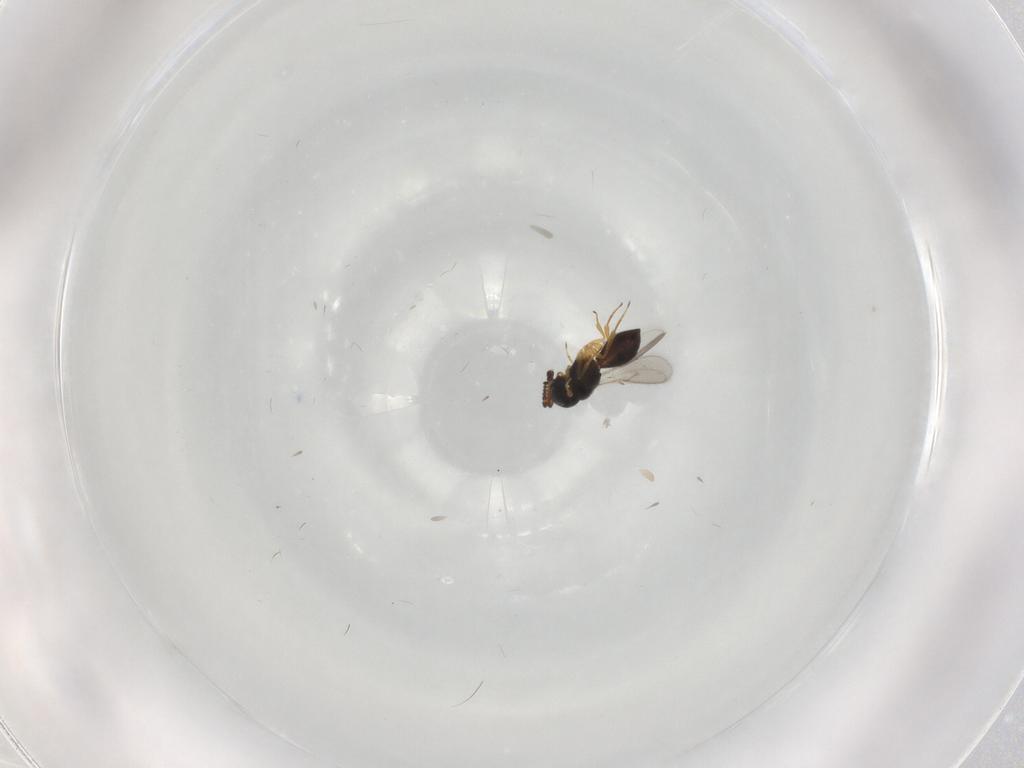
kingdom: Animalia
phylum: Arthropoda
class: Insecta
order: Hymenoptera
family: Scelionidae
